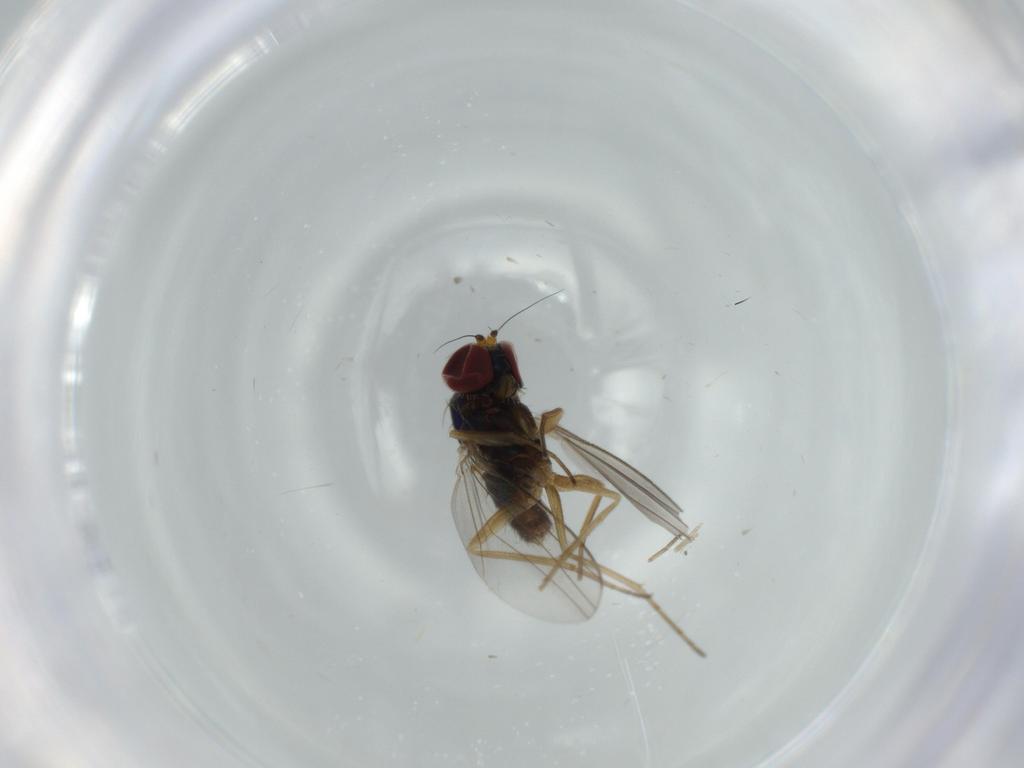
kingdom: Animalia
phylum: Arthropoda
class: Insecta
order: Diptera
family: Dolichopodidae
